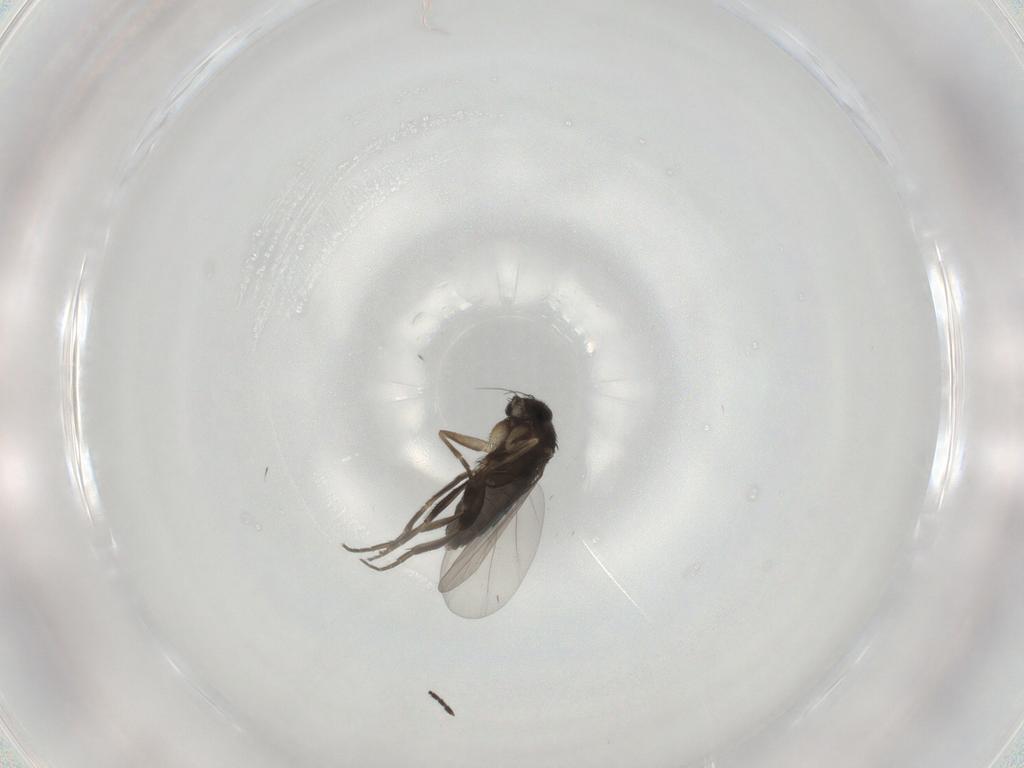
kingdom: Animalia
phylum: Arthropoda
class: Insecta
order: Diptera
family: Phoridae
